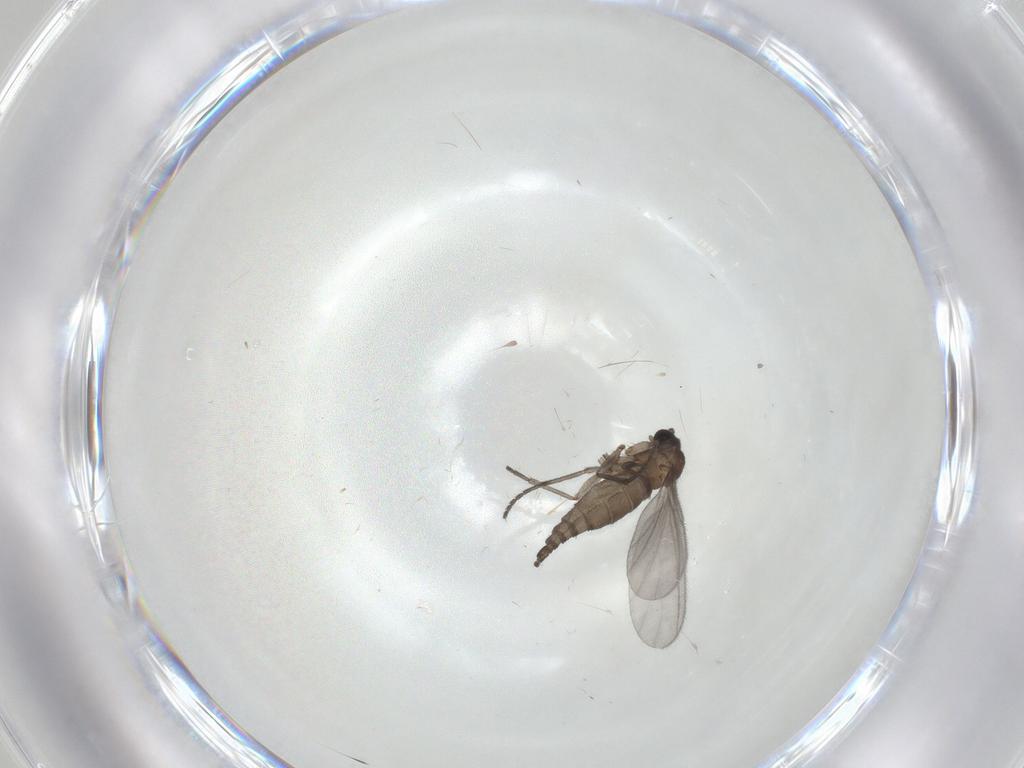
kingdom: Animalia
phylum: Arthropoda
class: Insecta
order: Diptera
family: Sciaridae
